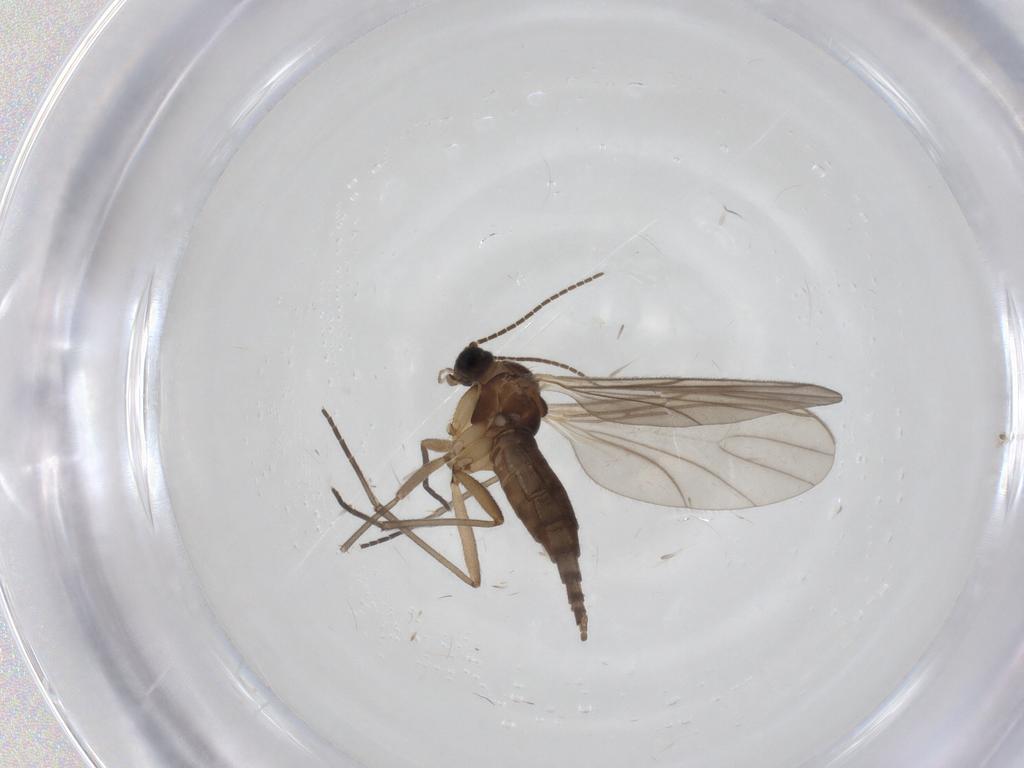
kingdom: Animalia
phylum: Arthropoda
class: Insecta
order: Diptera
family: Sciaridae
